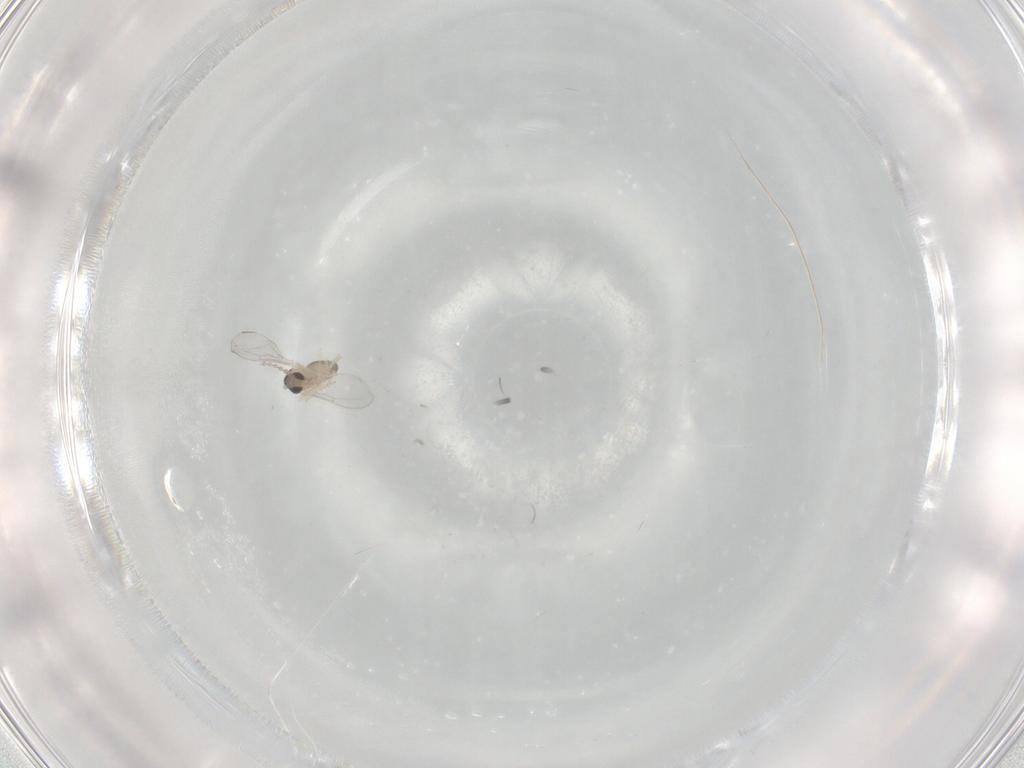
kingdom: Animalia
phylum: Arthropoda
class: Insecta
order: Diptera
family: Cecidomyiidae
